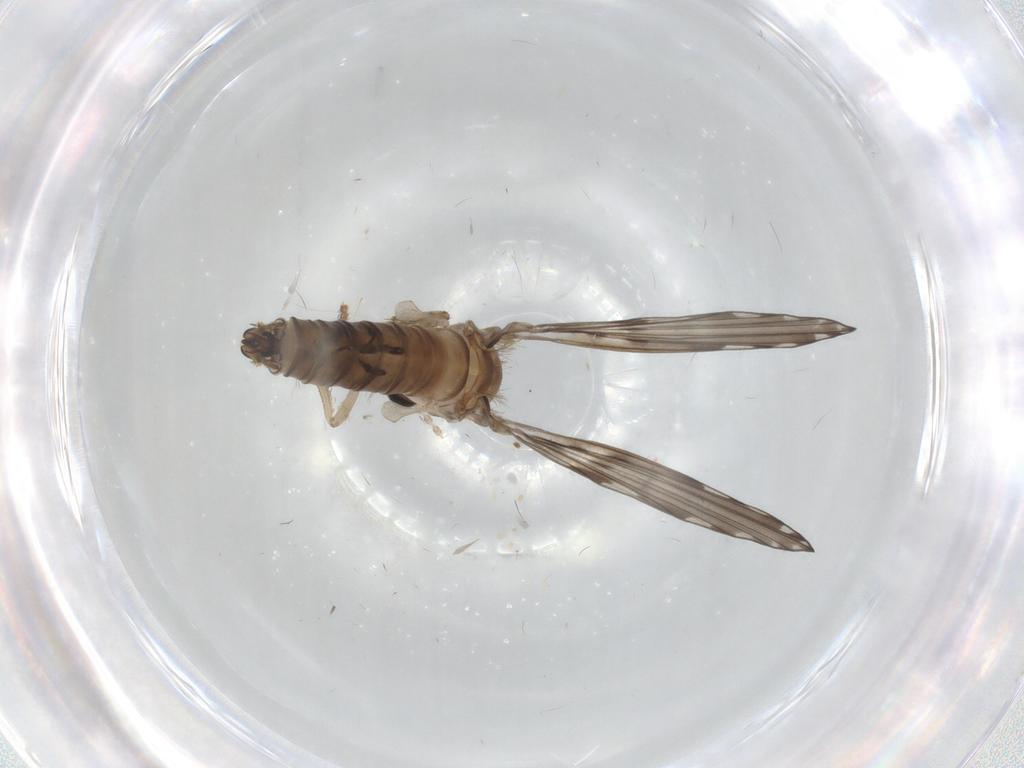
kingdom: Animalia
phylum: Arthropoda
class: Insecta
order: Diptera
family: Psychodidae
